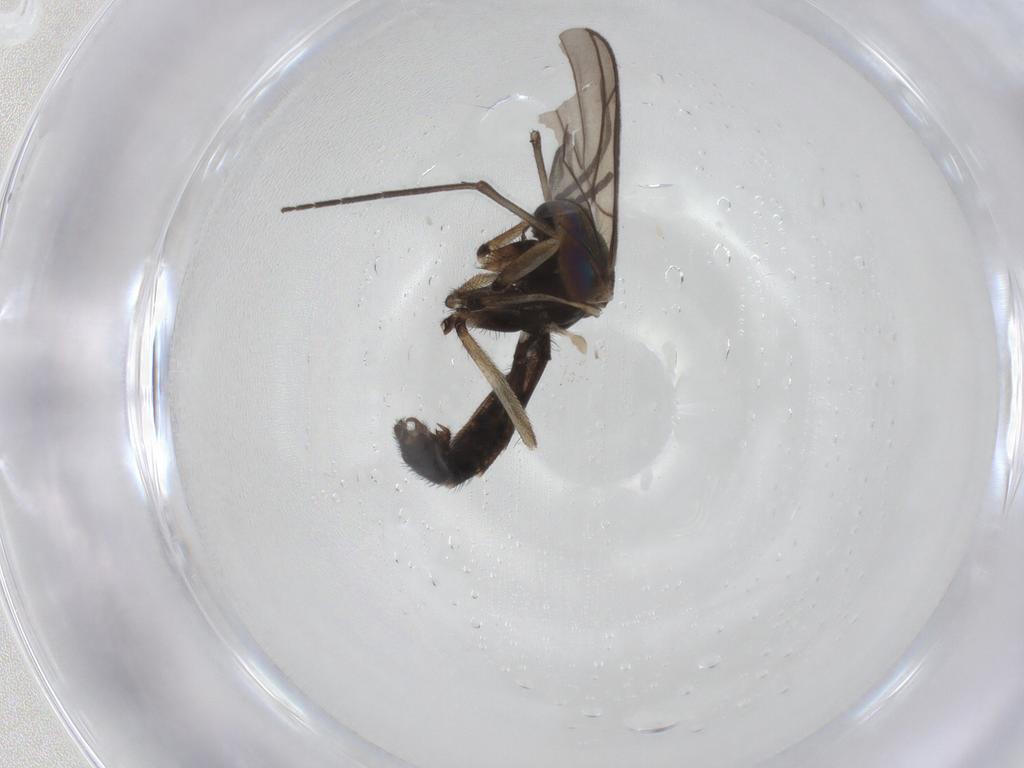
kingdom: Animalia
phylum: Arthropoda
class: Insecta
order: Diptera
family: Keroplatidae
